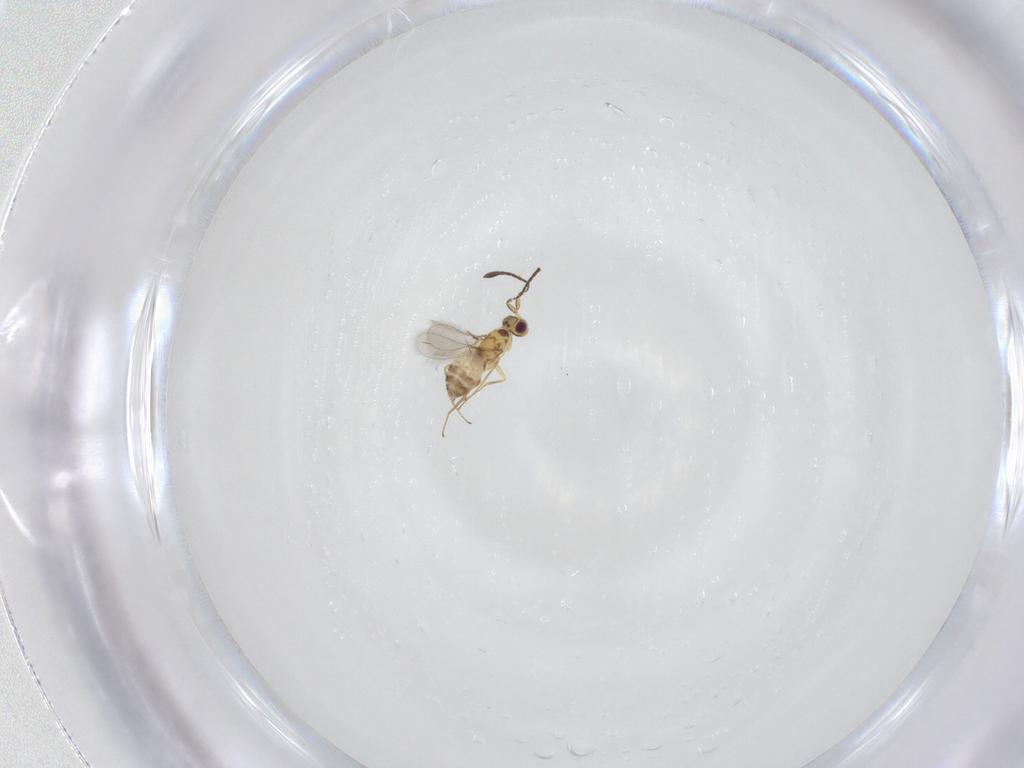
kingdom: Animalia
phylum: Arthropoda
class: Insecta
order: Hymenoptera
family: Mymaridae
